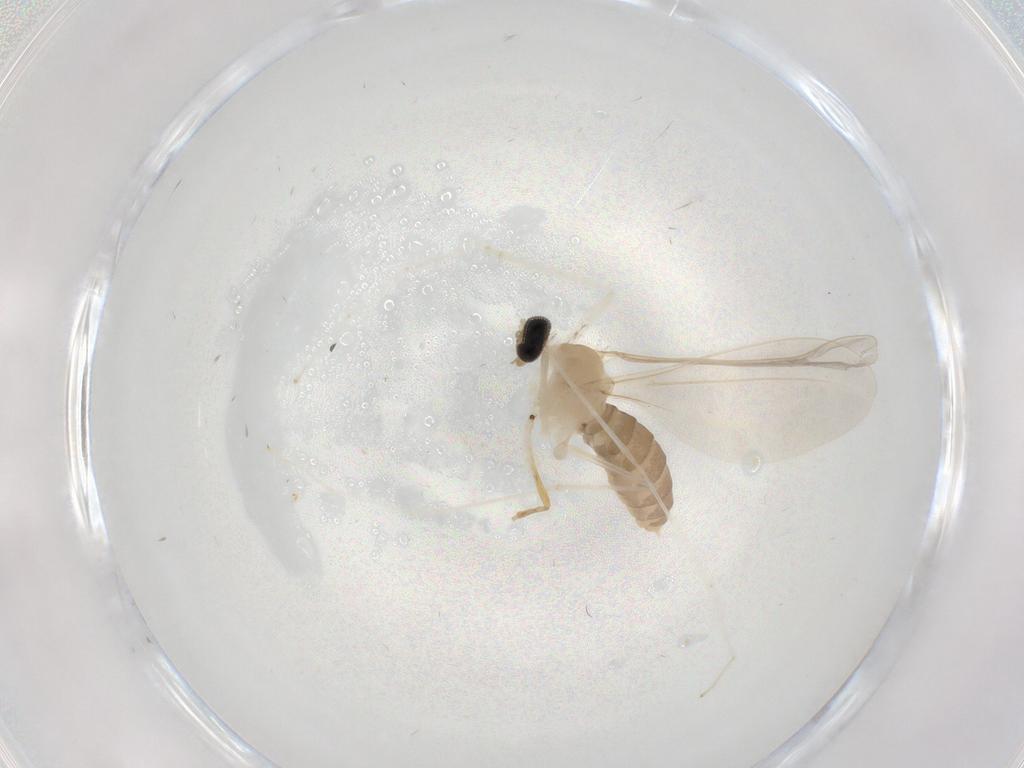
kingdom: Animalia
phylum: Arthropoda
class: Insecta
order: Diptera
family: Cecidomyiidae
